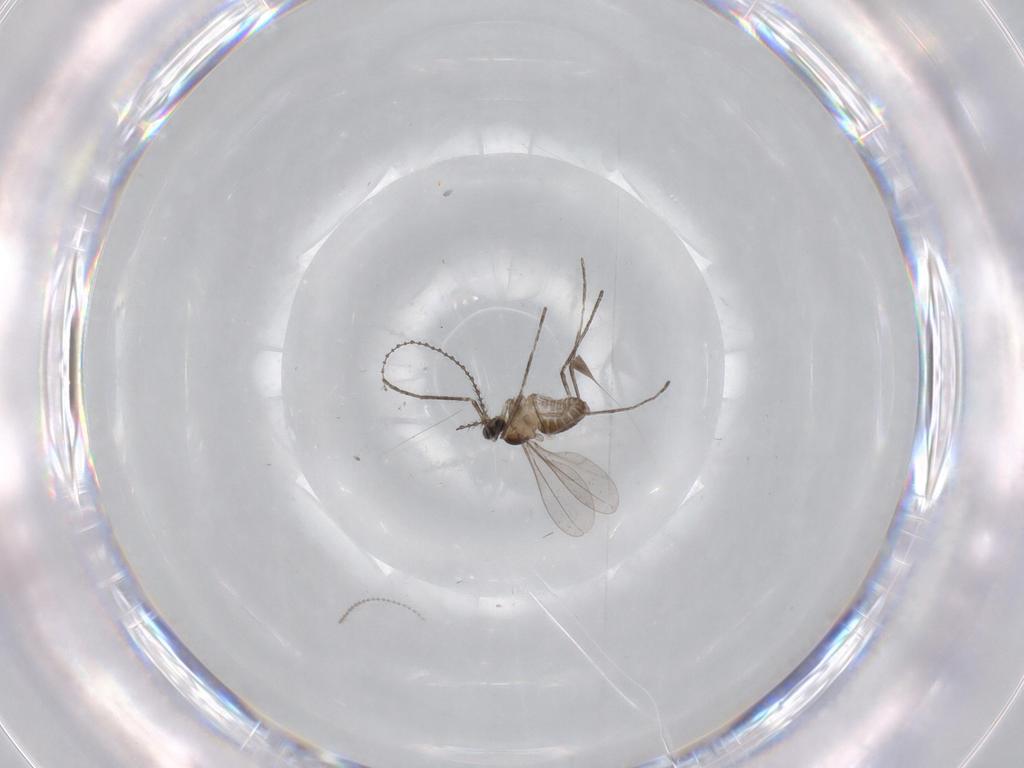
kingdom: Animalia
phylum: Arthropoda
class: Insecta
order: Diptera
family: Cecidomyiidae
